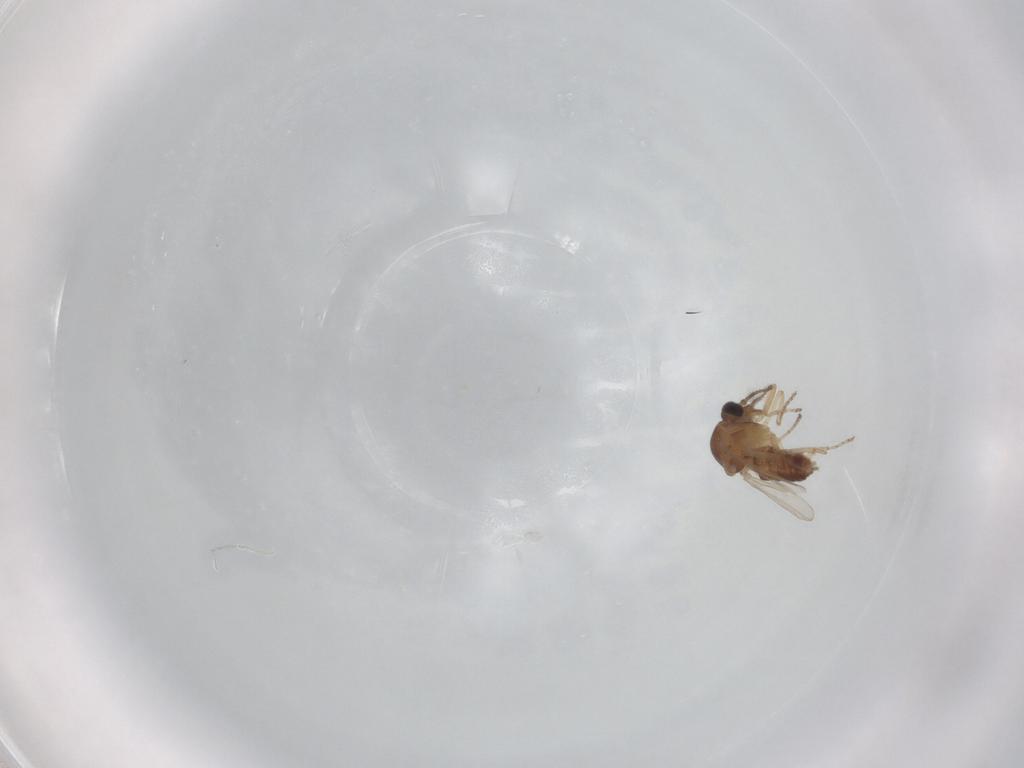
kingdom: Animalia
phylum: Arthropoda
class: Insecta
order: Diptera
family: Ceratopogonidae
